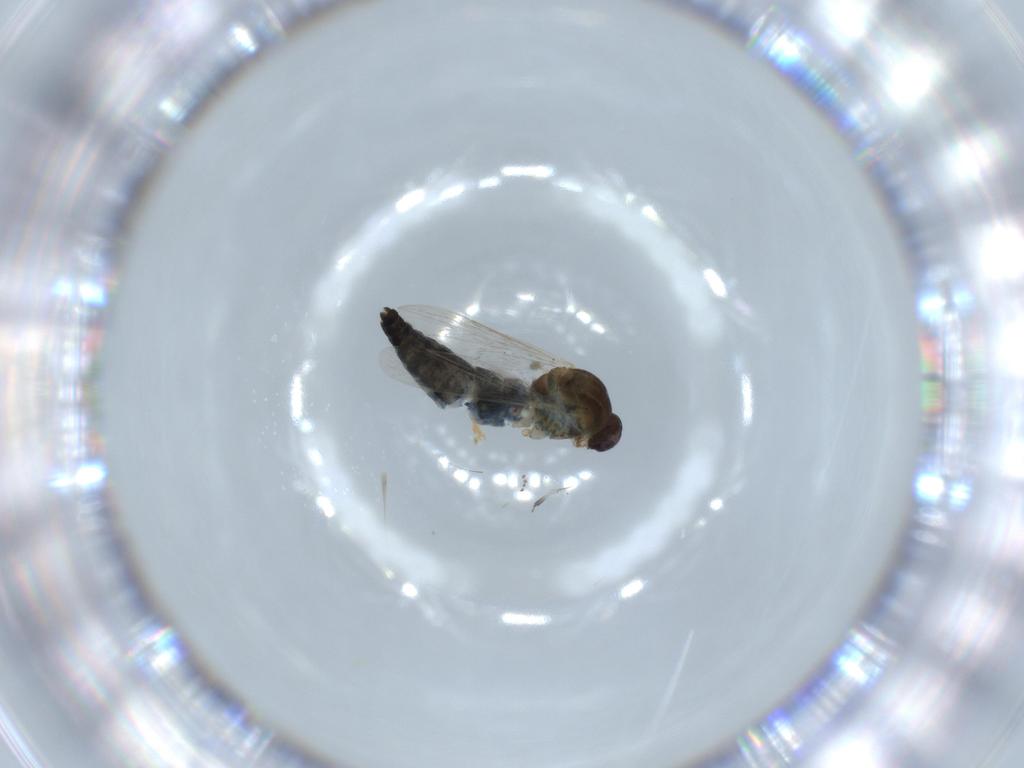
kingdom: Animalia
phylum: Arthropoda
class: Insecta
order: Diptera
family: Ceratopogonidae
